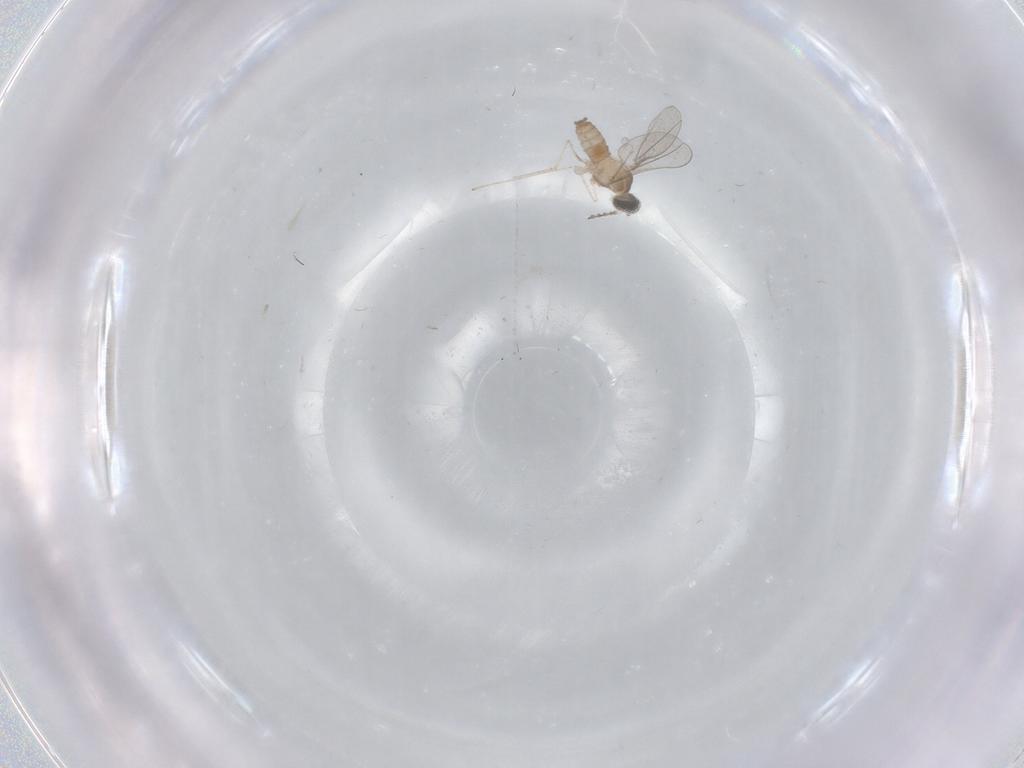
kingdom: Animalia
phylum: Arthropoda
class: Insecta
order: Diptera
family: Cecidomyiidae
